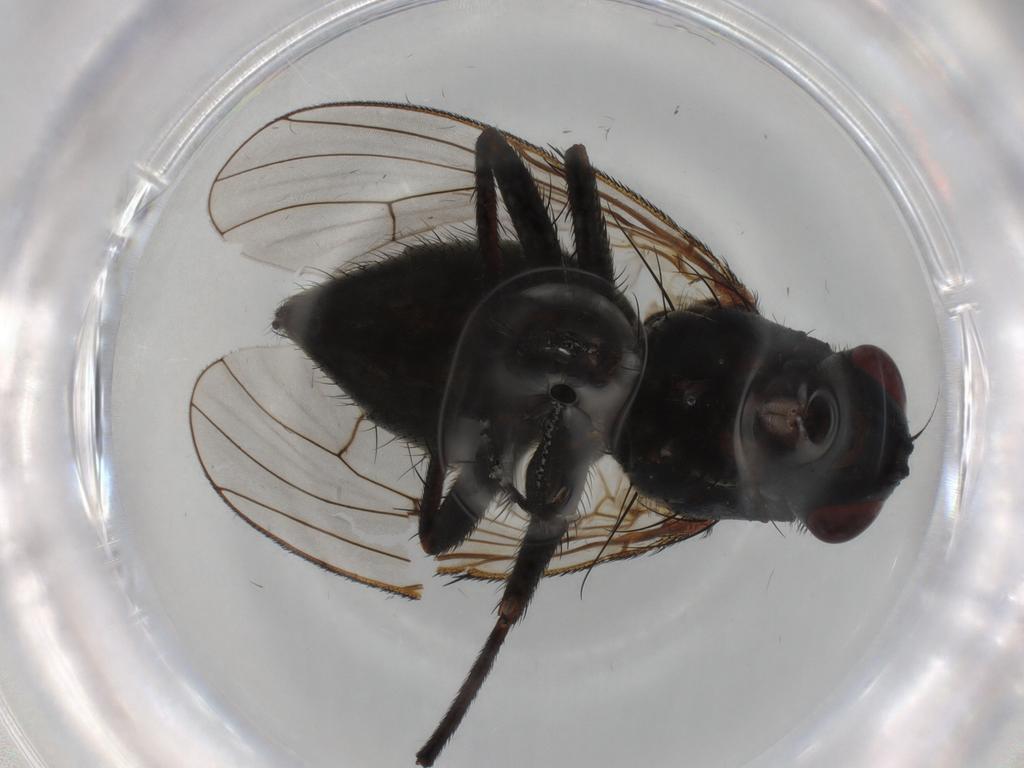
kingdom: Animalia
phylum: Arthropoda
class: Insecta
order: Diptera
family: Muscidae
